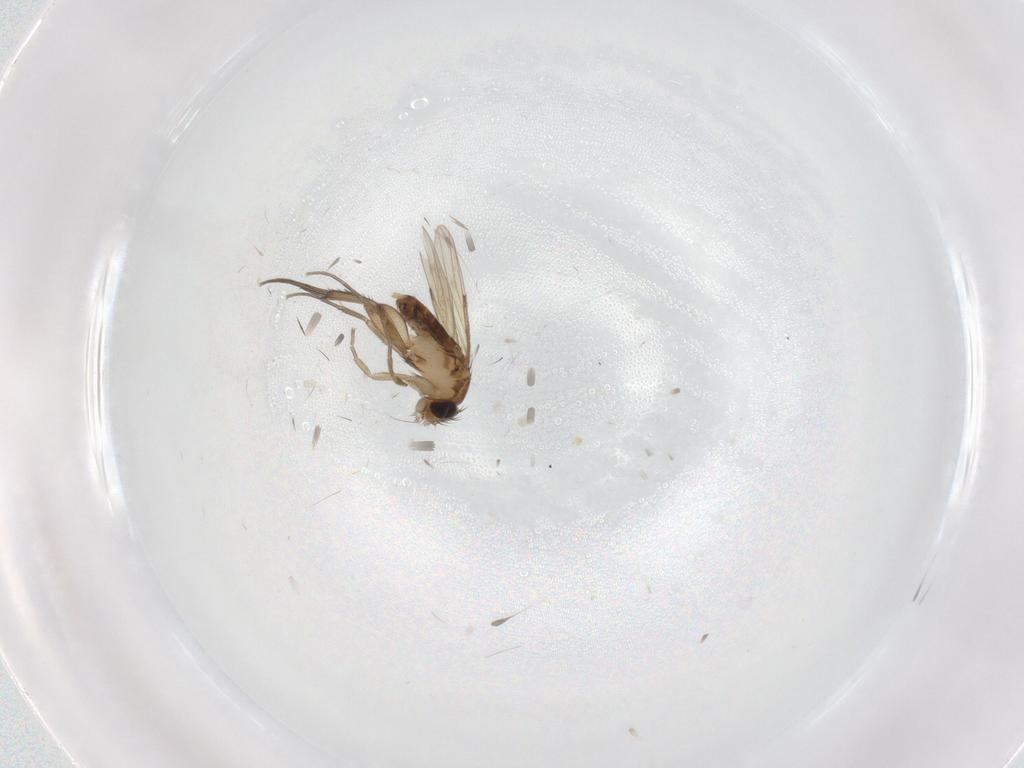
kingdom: Animalia
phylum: Arthropoda
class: Insecta
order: Diptera
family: Phoridae
